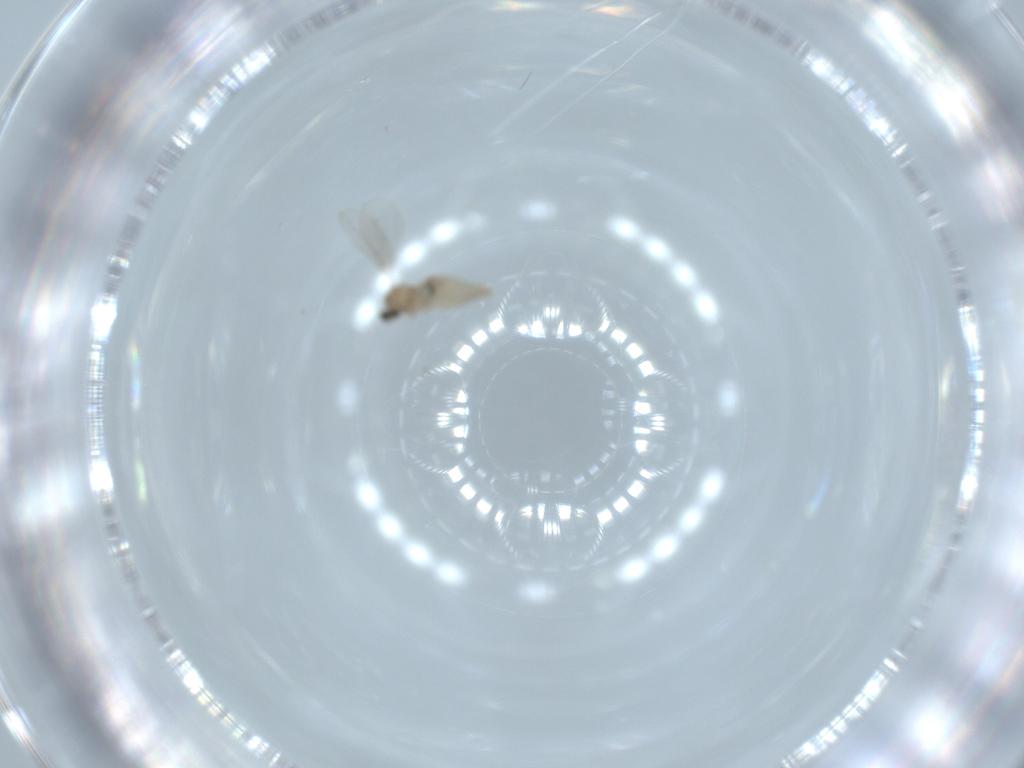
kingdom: Animalia
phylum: Arthropoda
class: Insecta
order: Diptera
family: Cecidomyiidae
